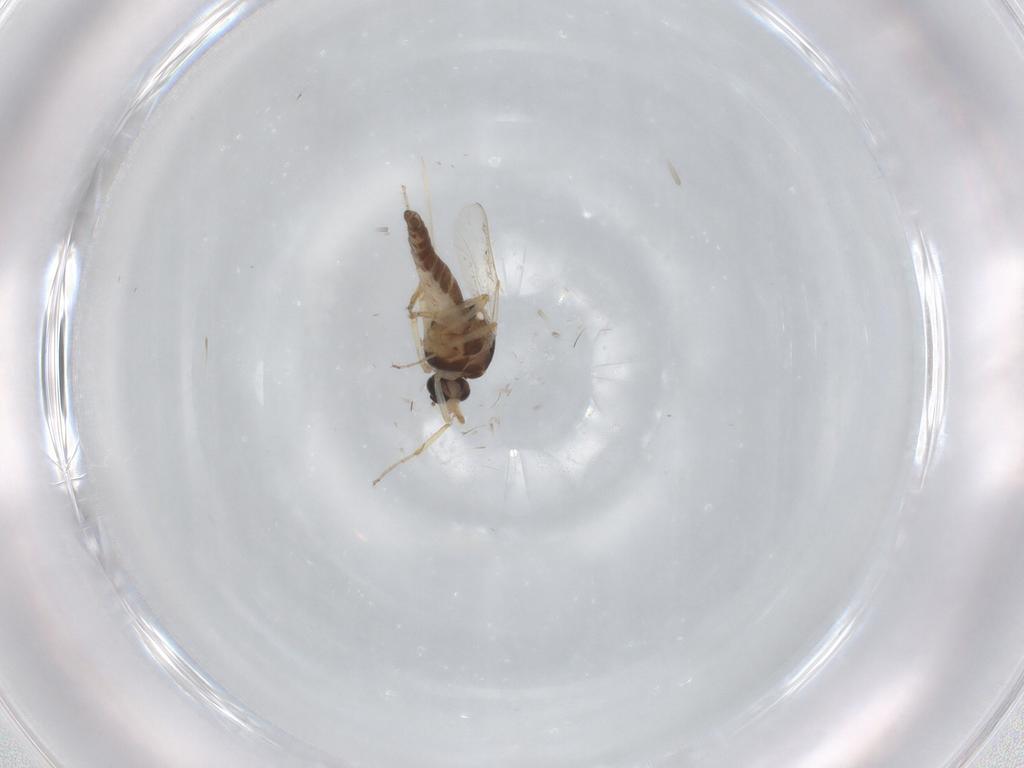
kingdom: Animalia
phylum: Arthropoda
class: Insecta
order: Diptera
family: Ceratopogonidae
